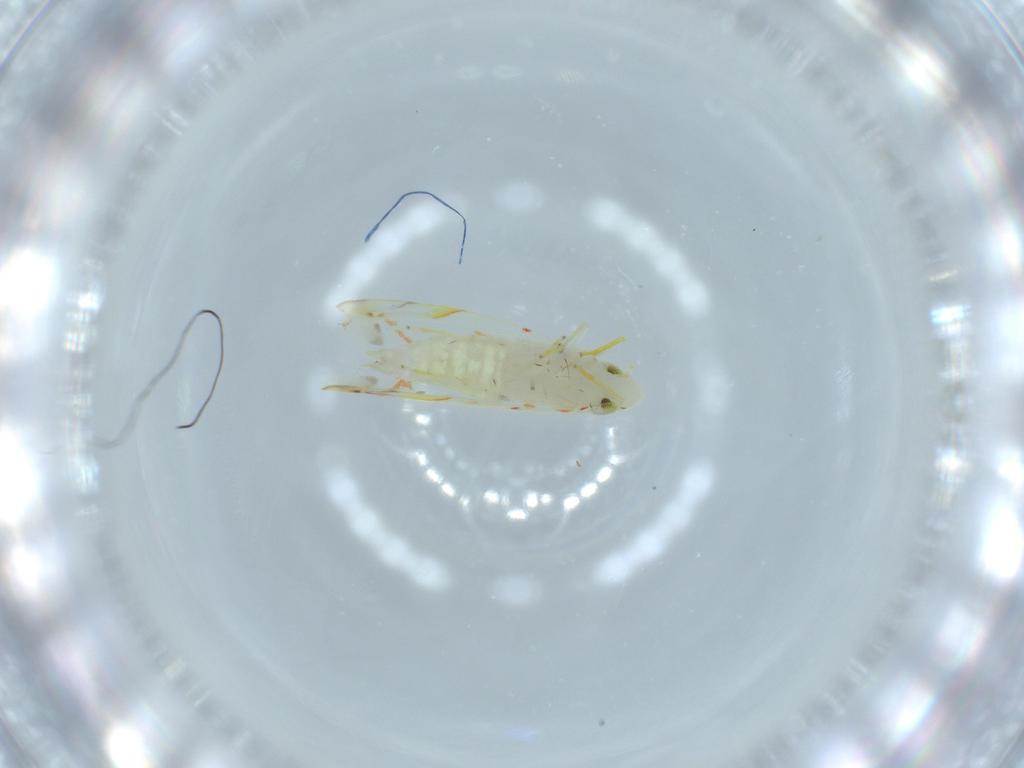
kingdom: Animalia
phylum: Arthropoda
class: Insecta
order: Hemiptera
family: Cicadellidae
